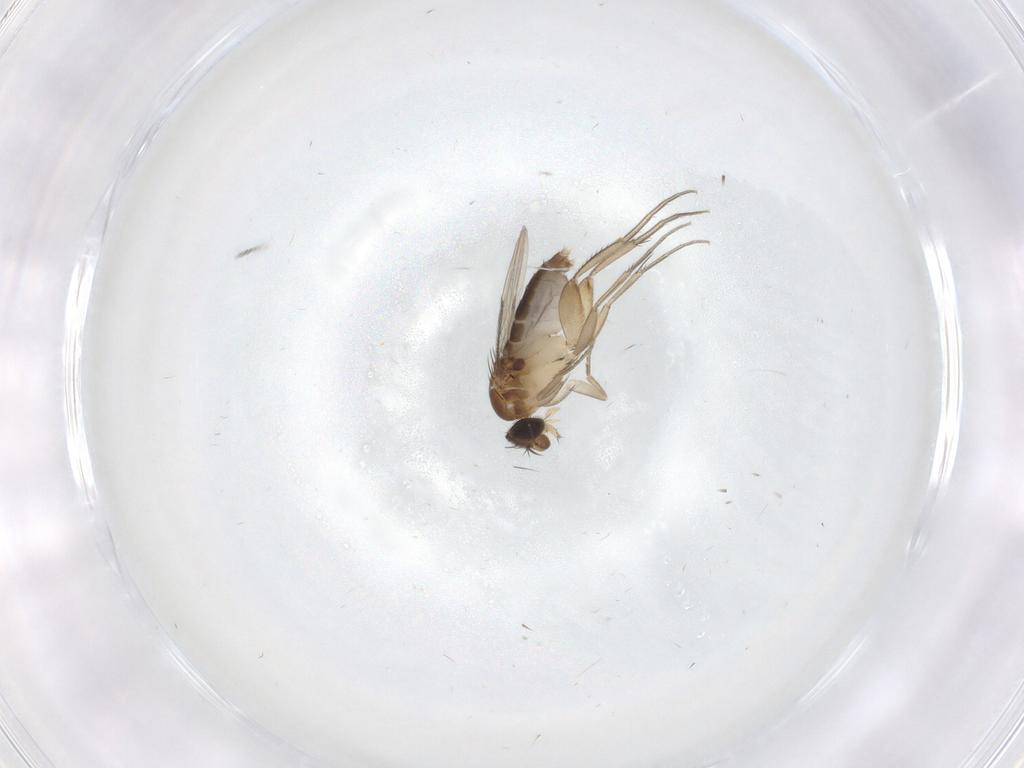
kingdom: Animalia
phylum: Arthropoda
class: Insecta
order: Diptera
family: Phoridae
